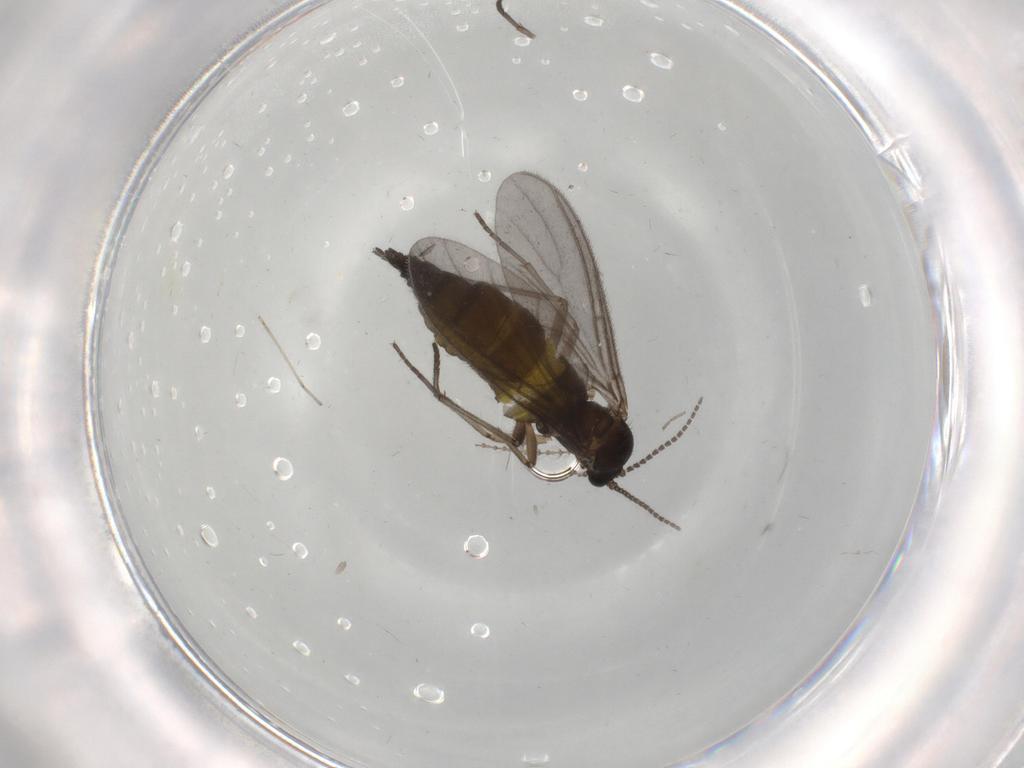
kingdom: Animalia
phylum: Arthropoda
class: Insecta
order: Diptera
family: Sciaridae
